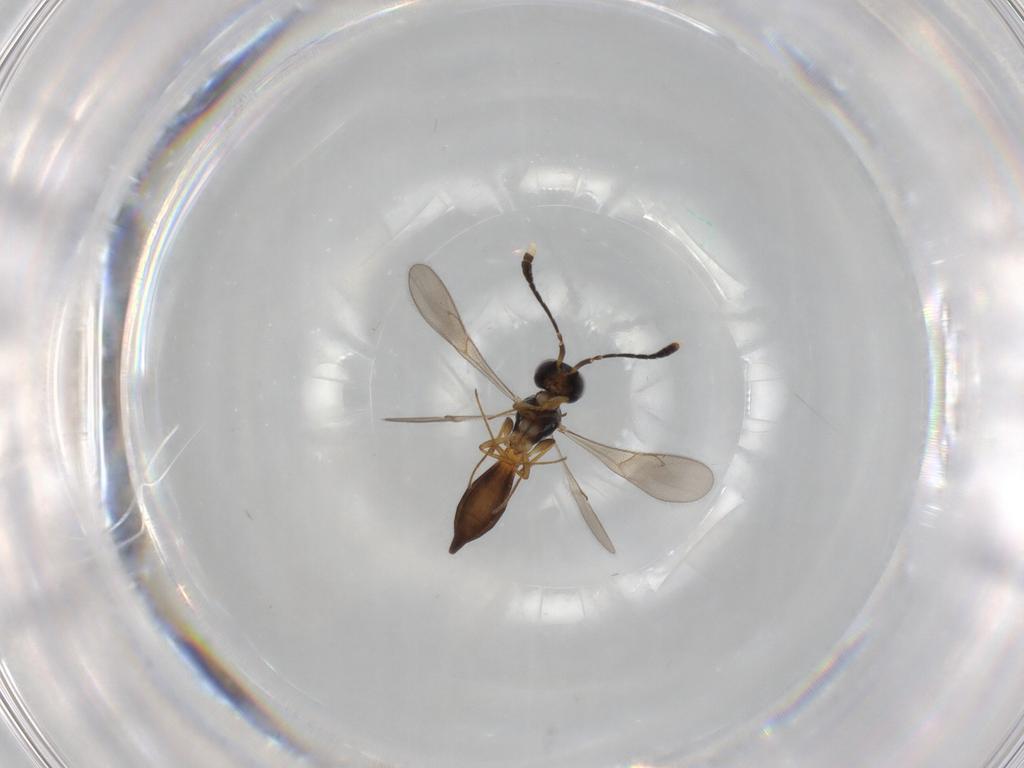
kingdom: Animalia
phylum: Arthropoda
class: Insecta
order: Hymenoptera
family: Scelionidae
